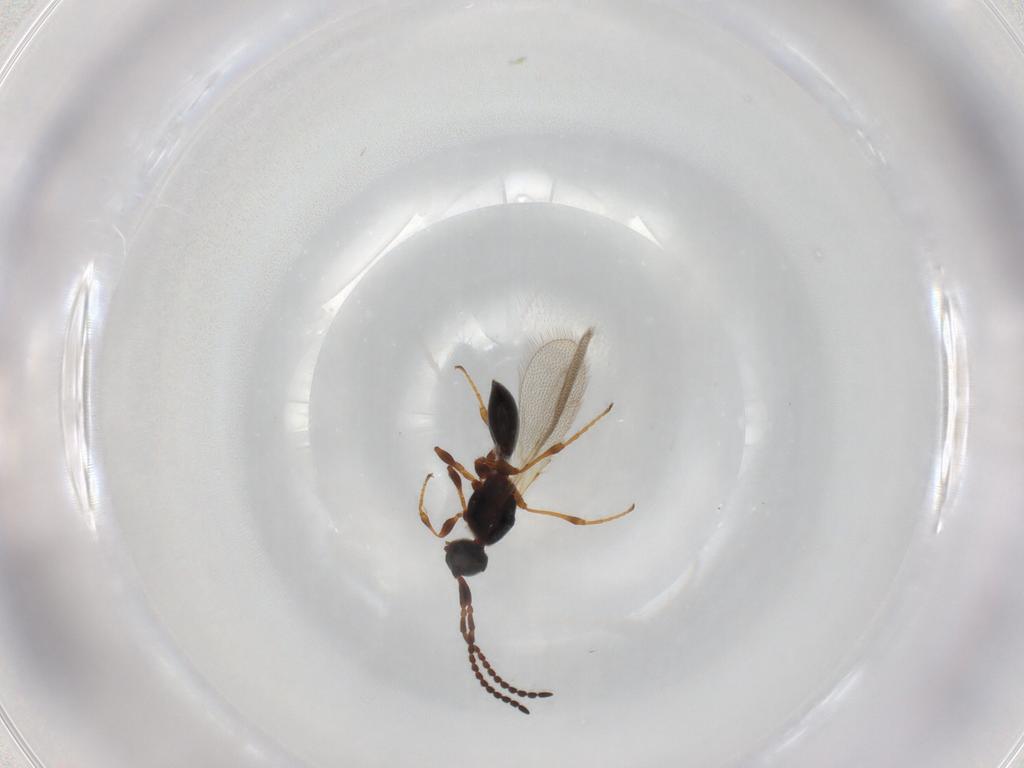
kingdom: Animalia
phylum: Arthropoda
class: Insecta
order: Hymenoptera
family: Diapriidae
